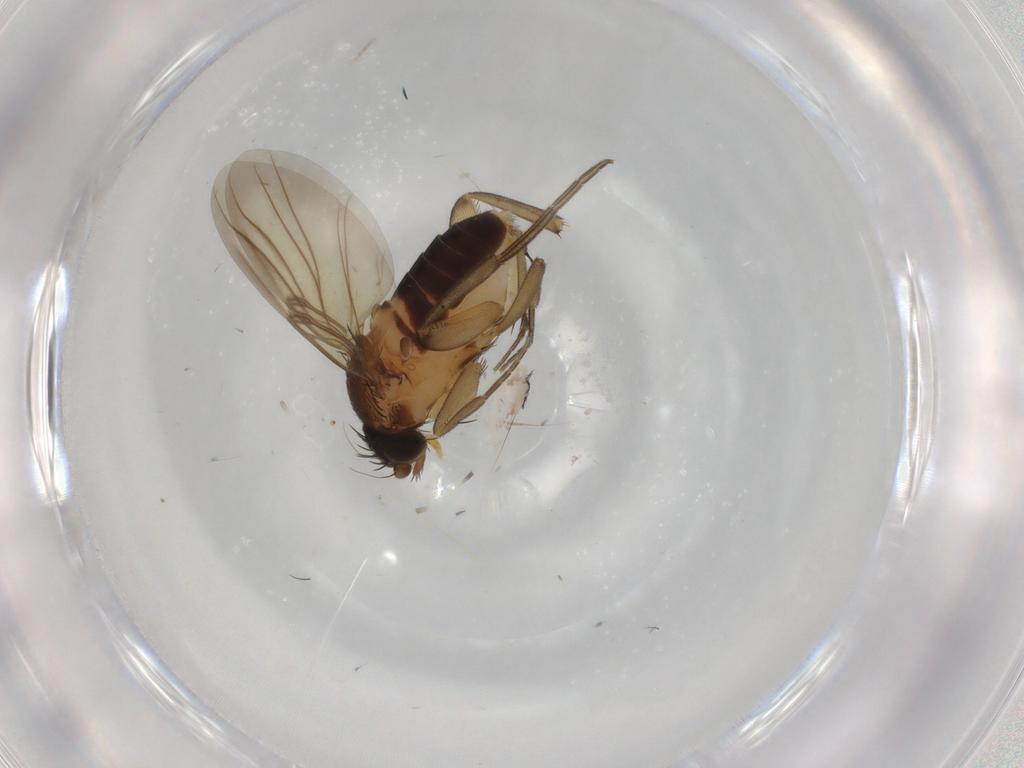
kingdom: Animalia
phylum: Arthropoda
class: Insecta
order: Diptera
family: Phoridae
